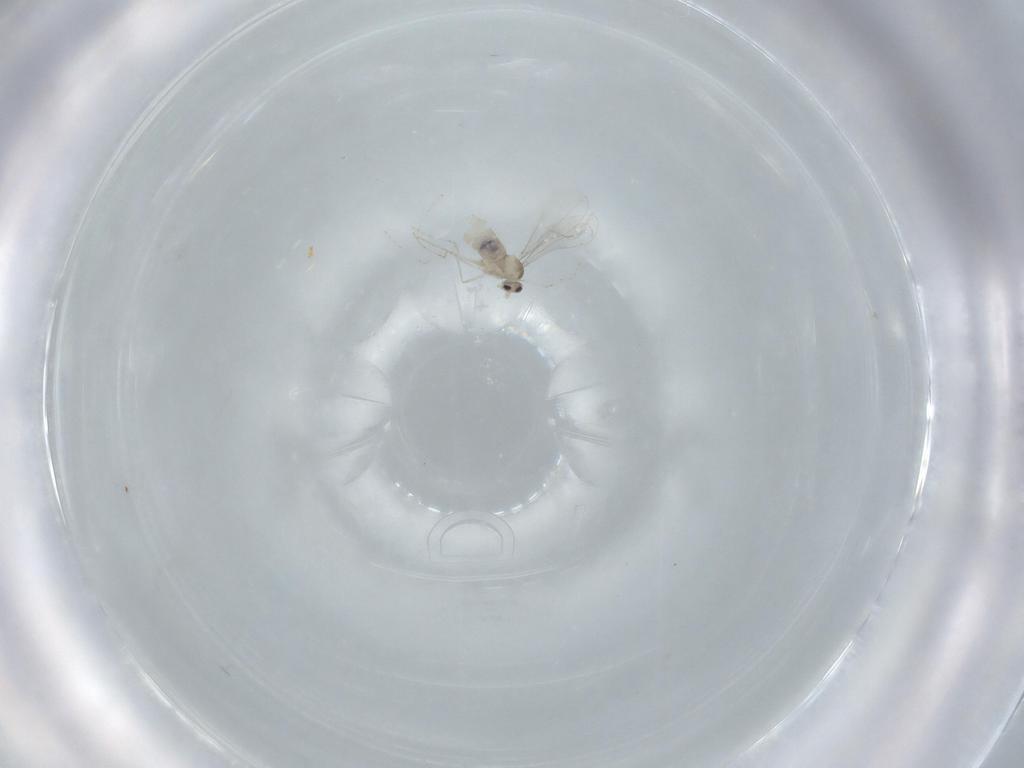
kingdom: Animalia
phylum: Arthropoda
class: Insecta
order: Diptera
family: Cecidomyiidae
